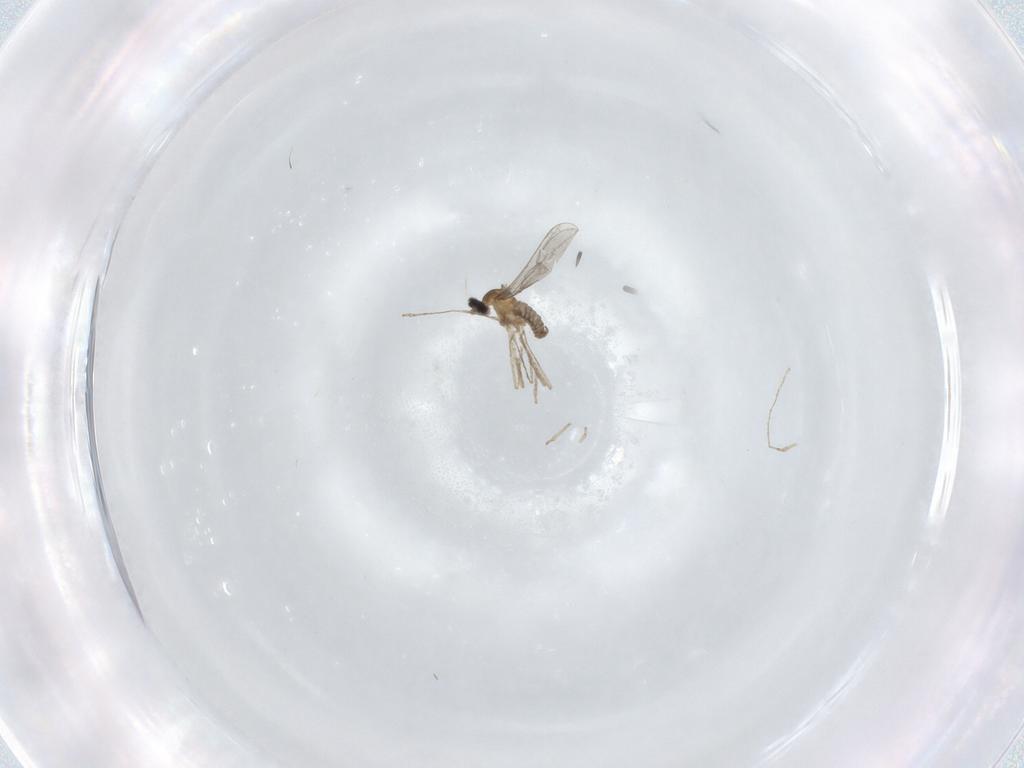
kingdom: Animalia
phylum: Arthropoda
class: Insecta
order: Diptera
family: Cecidomyiidae
